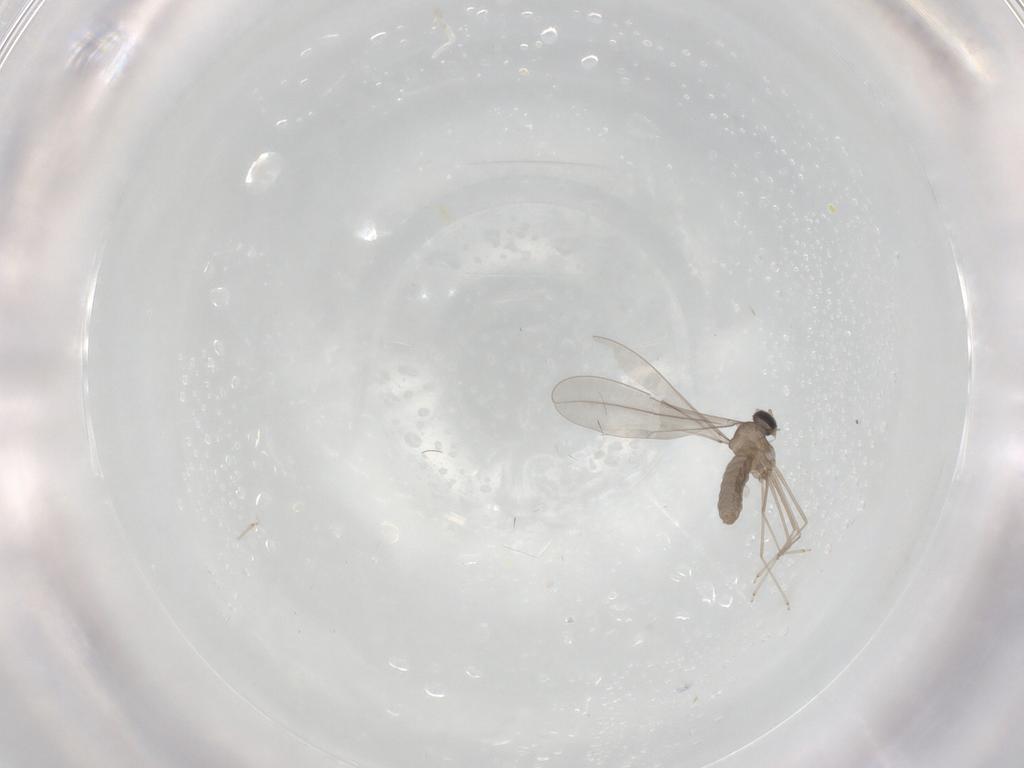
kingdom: Animalia
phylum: Arthropoda
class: Insecta
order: Diptera
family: Cecidomyiidae
